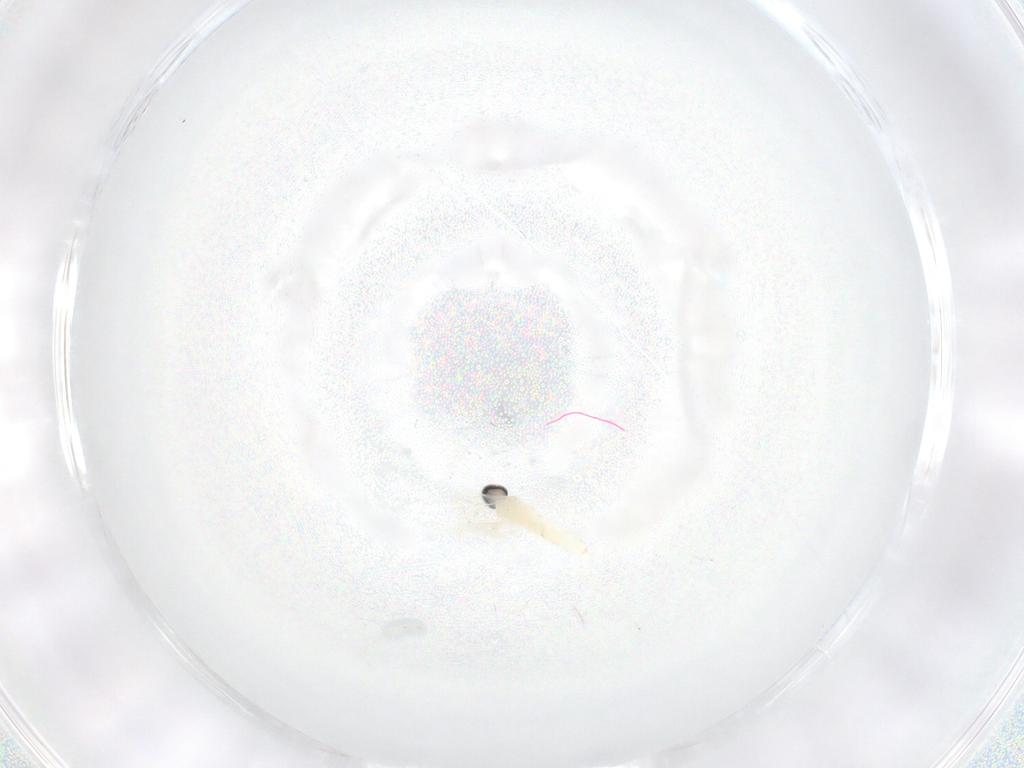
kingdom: Animalia
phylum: Arthropoda
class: Insecta
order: Diptera
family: Cecidomyiidae
